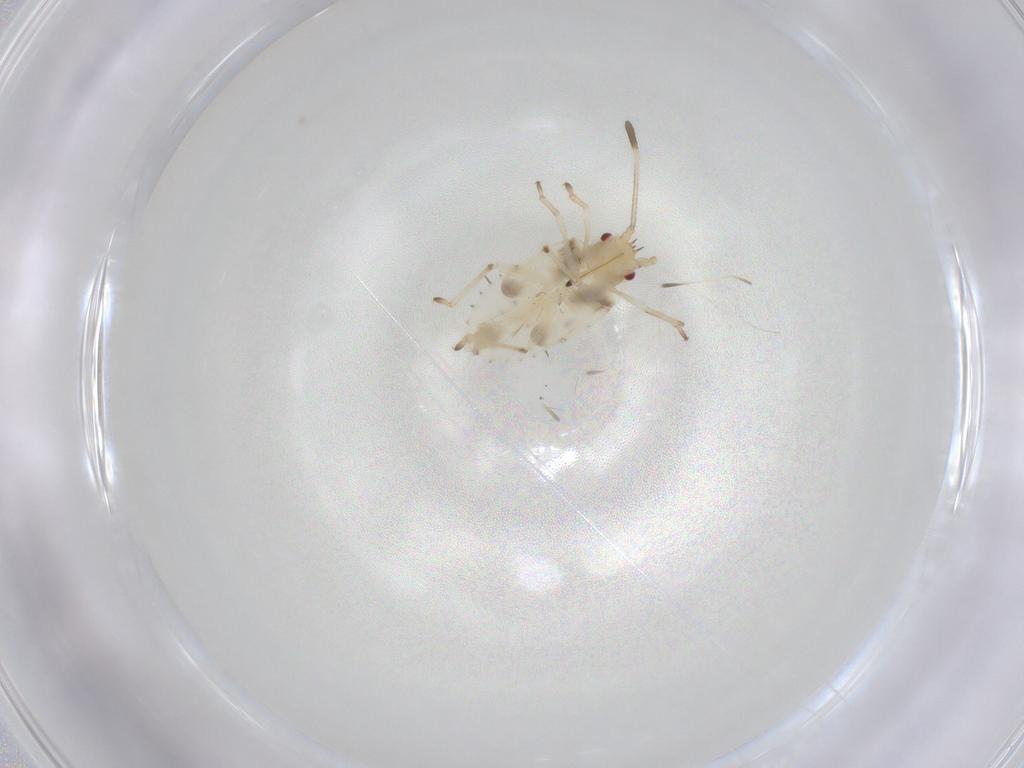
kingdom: Animalia
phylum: Arthropoda
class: Insecta
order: Hemiptera
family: Tingidae
